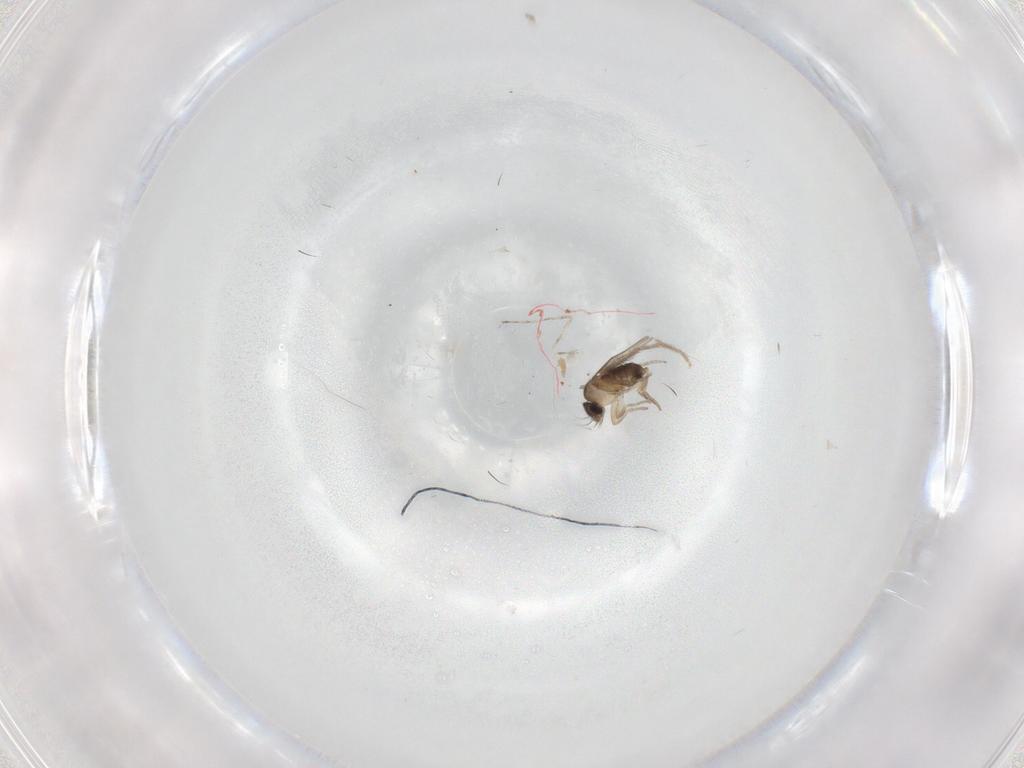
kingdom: Animalia
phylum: Arthropoda
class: Insecta
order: Diptera
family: Sciaridae
